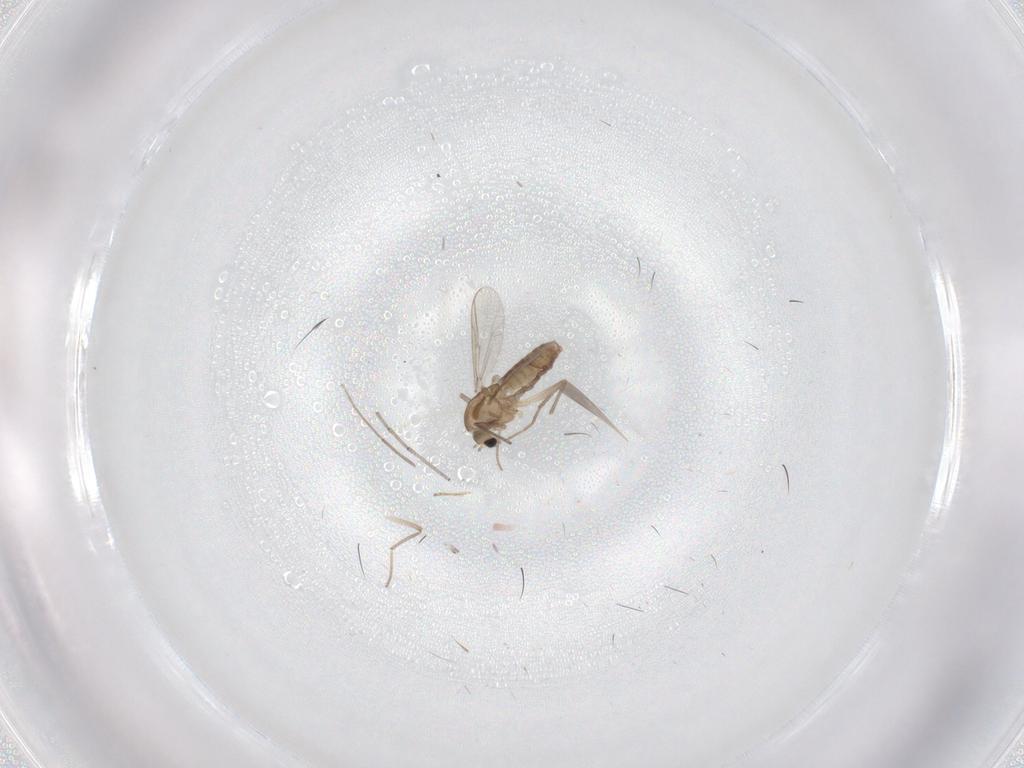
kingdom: Animalia
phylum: Arthropoda
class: Insecta
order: Diptera
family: Chironomidae
